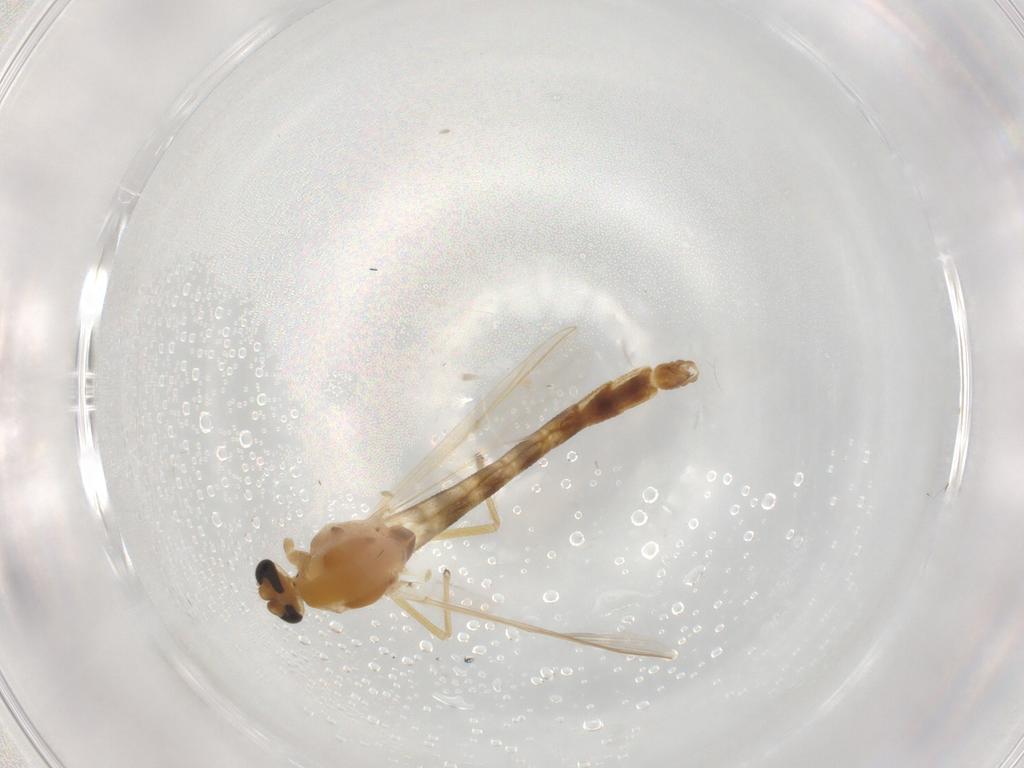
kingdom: Animalia
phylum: Arthropoda
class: Insecta
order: Diptera
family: Chironomidae
